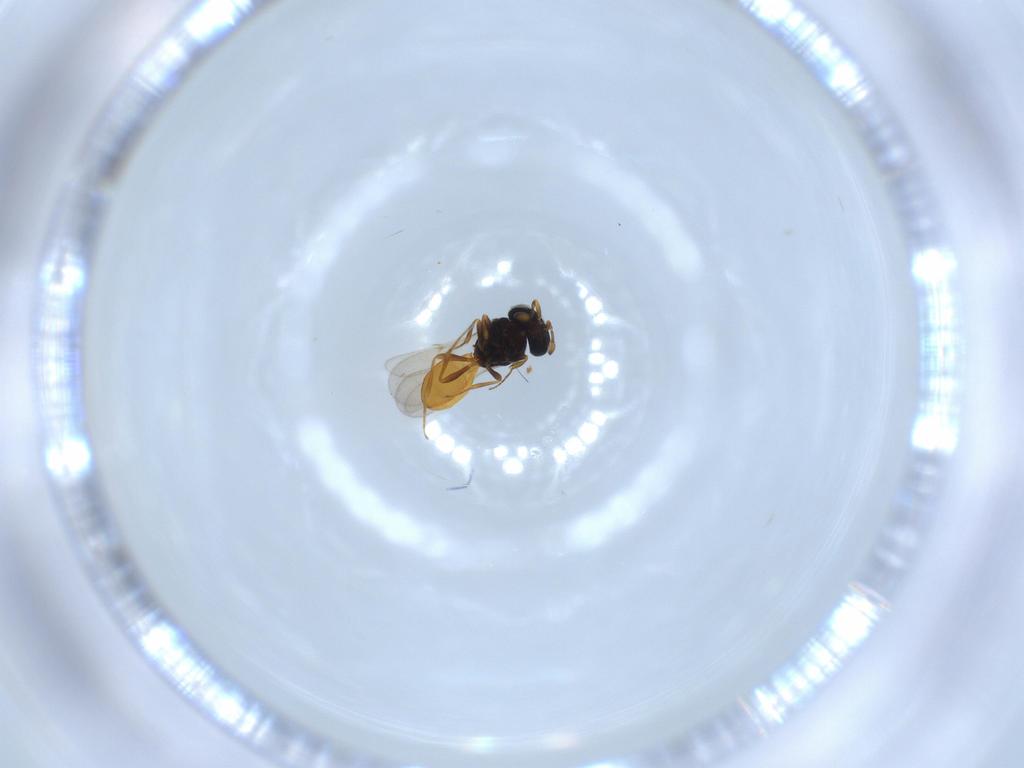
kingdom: Animalia
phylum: Arthropoda
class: Insecta
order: Hymenoptera
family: Scelionidae
